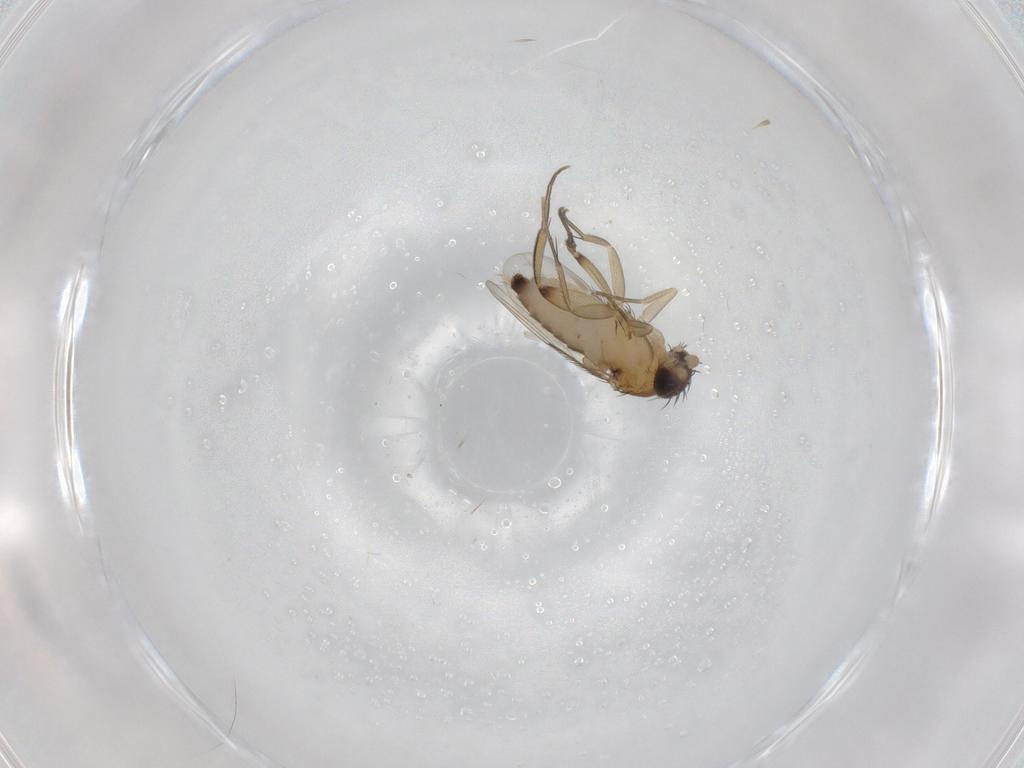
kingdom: Animalia
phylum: Arthropoda
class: Insecta
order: Diptera
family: Phoridae
